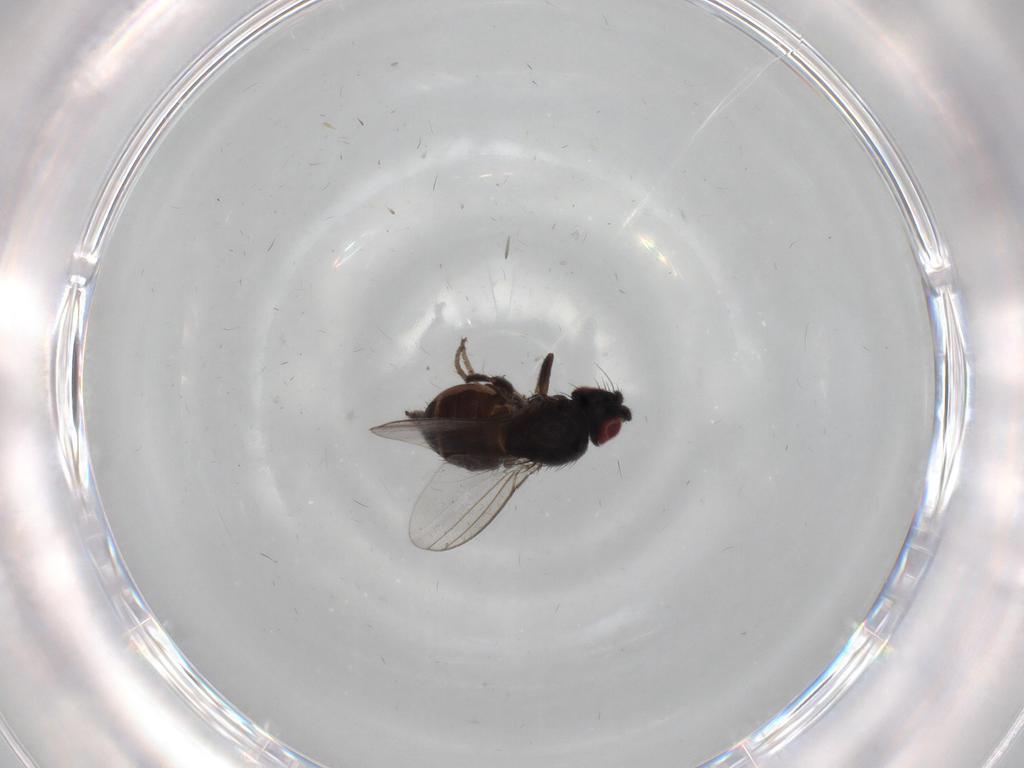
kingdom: Animalia
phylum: Arthropoda
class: Insecta
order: Diptera
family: Milichiidae
